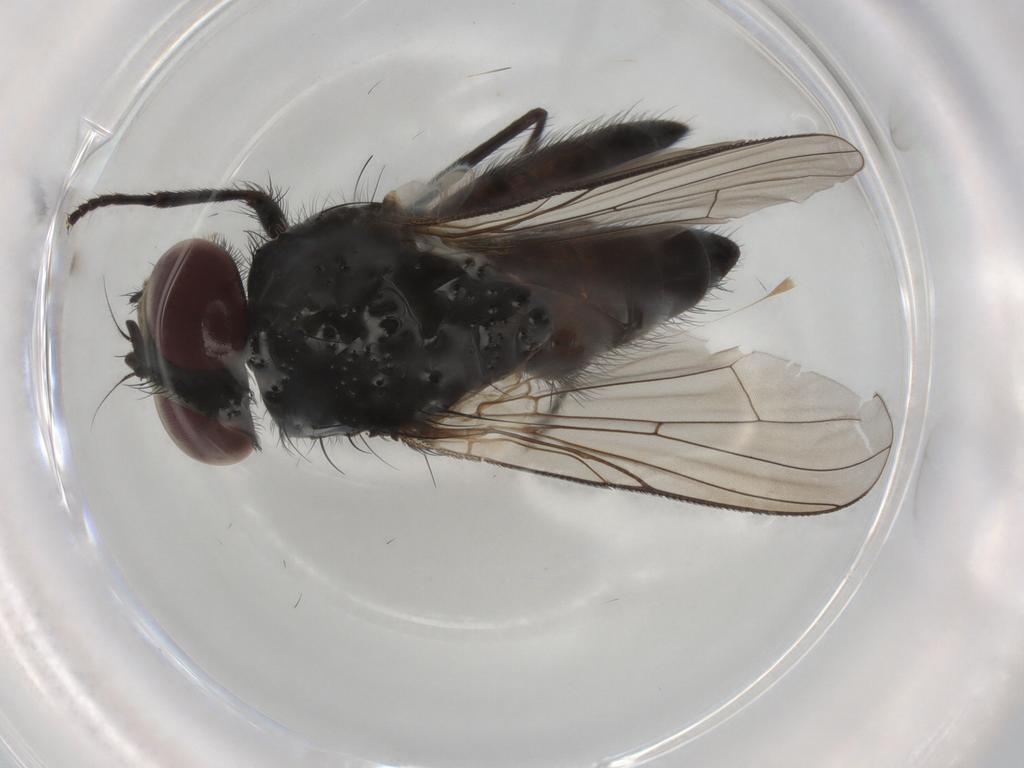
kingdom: Animalia
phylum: Arthropoda
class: Insecta
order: Diptera
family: Muscidae
